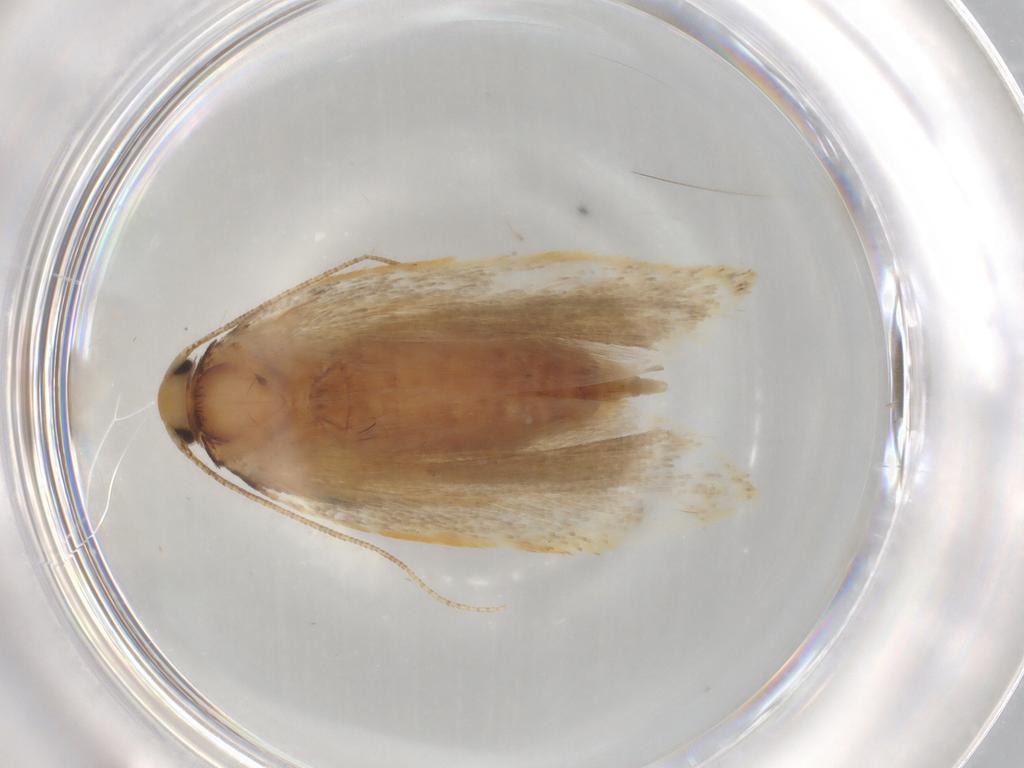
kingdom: Animalia
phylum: Arthropoda
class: Insecta
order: Lepidoptera
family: Depressariidae
